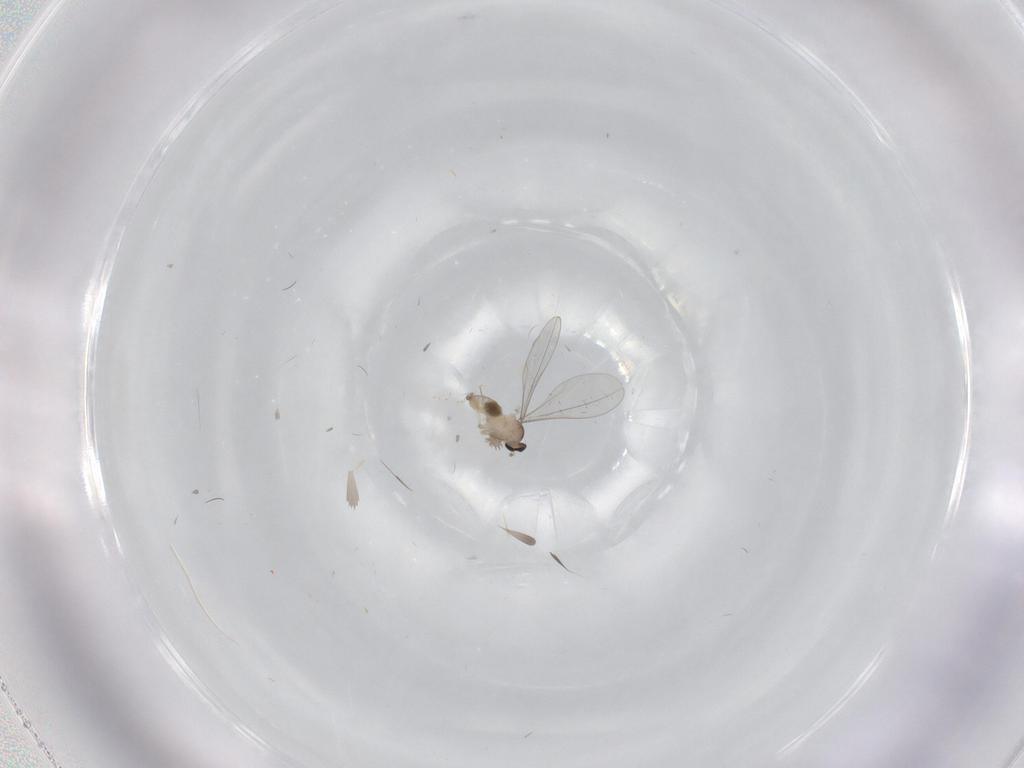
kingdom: Animalia
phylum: Arthropoda
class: Insecta
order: Diptera
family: Cecidomyiidae
